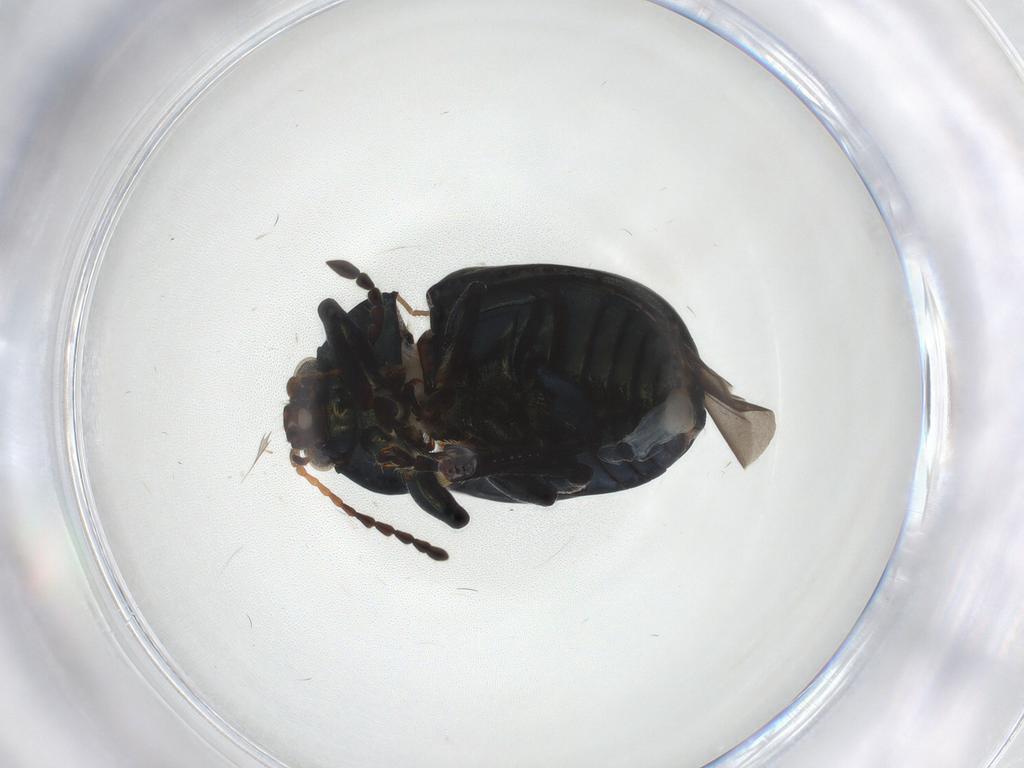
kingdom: Animalia
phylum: Arthropoda
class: Insecta
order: Coleoptera
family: Chrysomelidae
